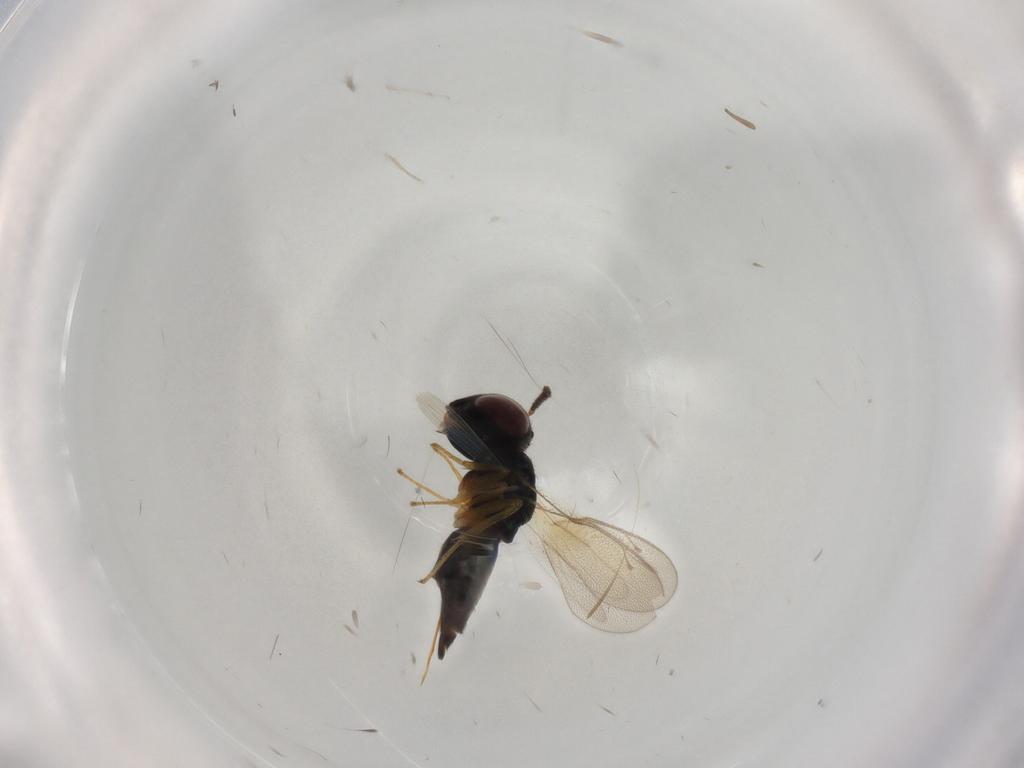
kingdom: Animalia
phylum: Arthropoda
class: Insecta
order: Hymenoptera
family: Pteromalidae
